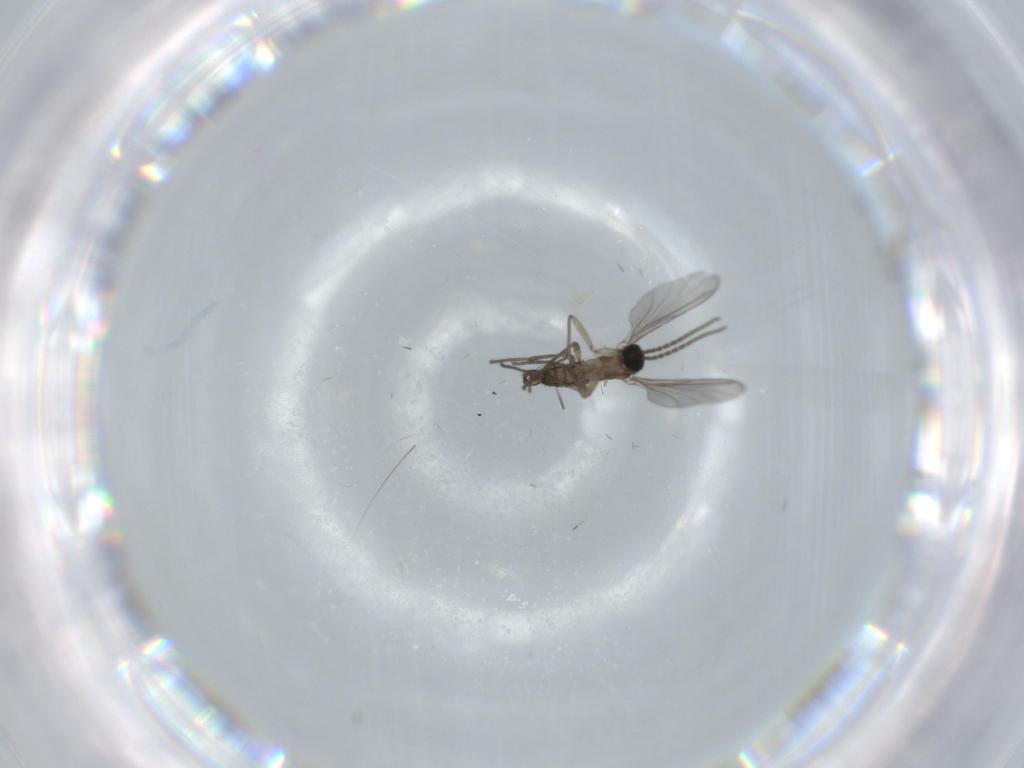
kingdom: Animalia
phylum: Arthropoda
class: Insecta
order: Diptera
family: Sciaridae
